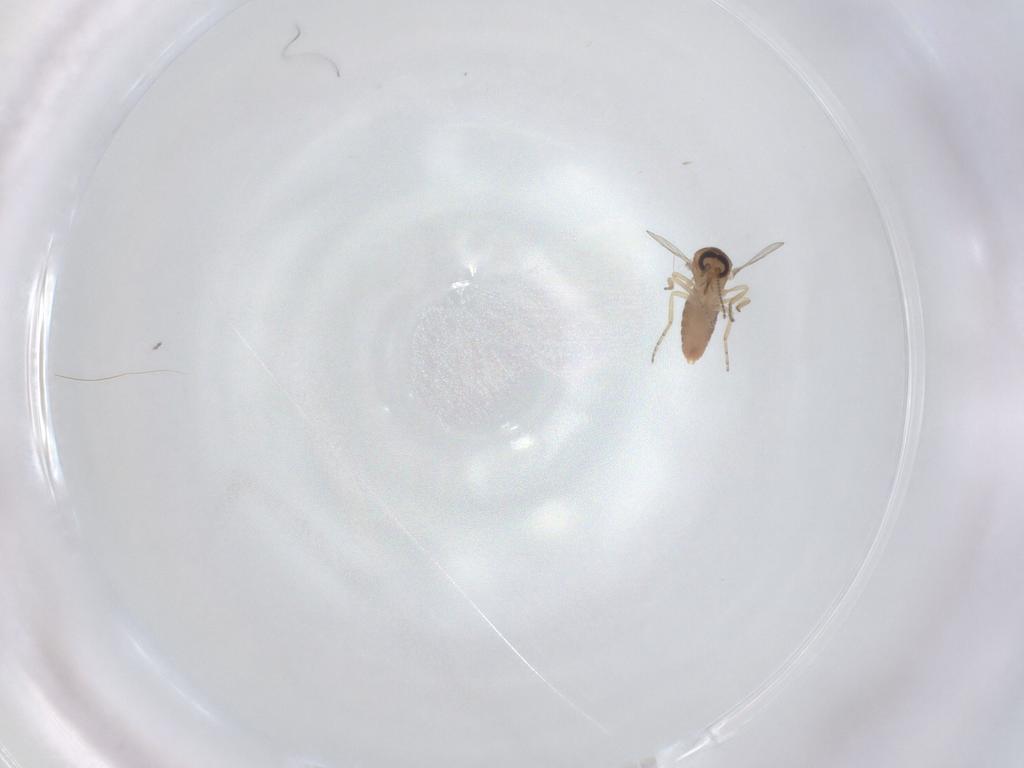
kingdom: Animalia
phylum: Arthropoda
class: Insecta
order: Diptera
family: Ceratopogonidae
